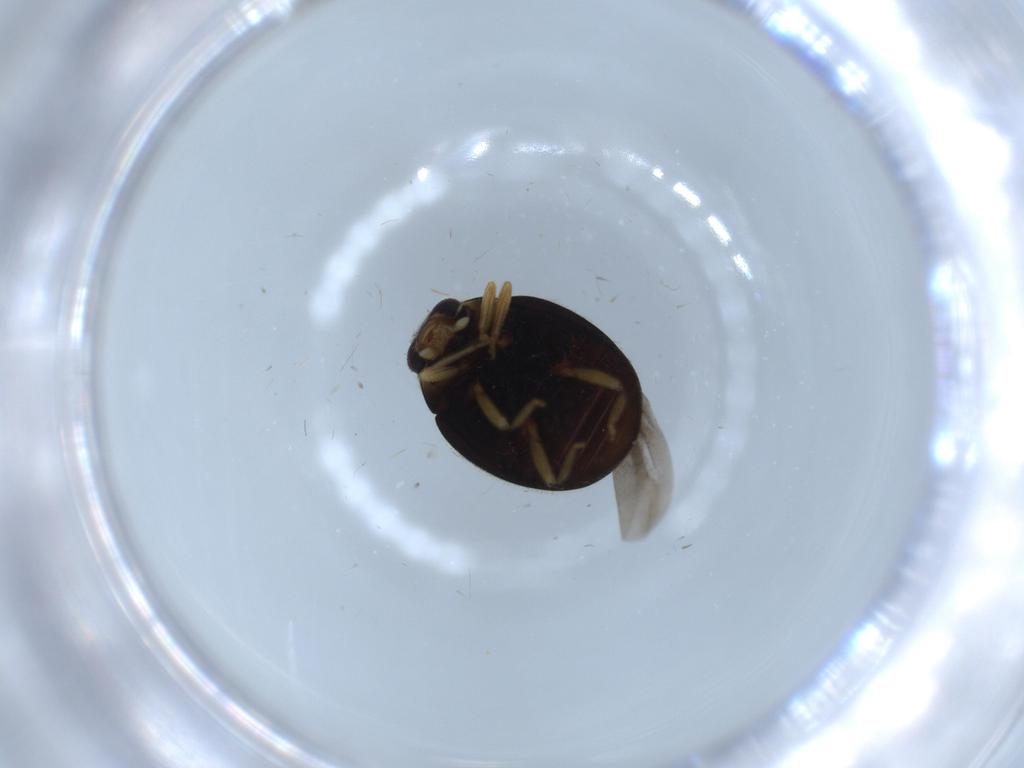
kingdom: Animalia
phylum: Arthropoda
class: Insecta
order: Coleoptera
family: Coccinellidae
